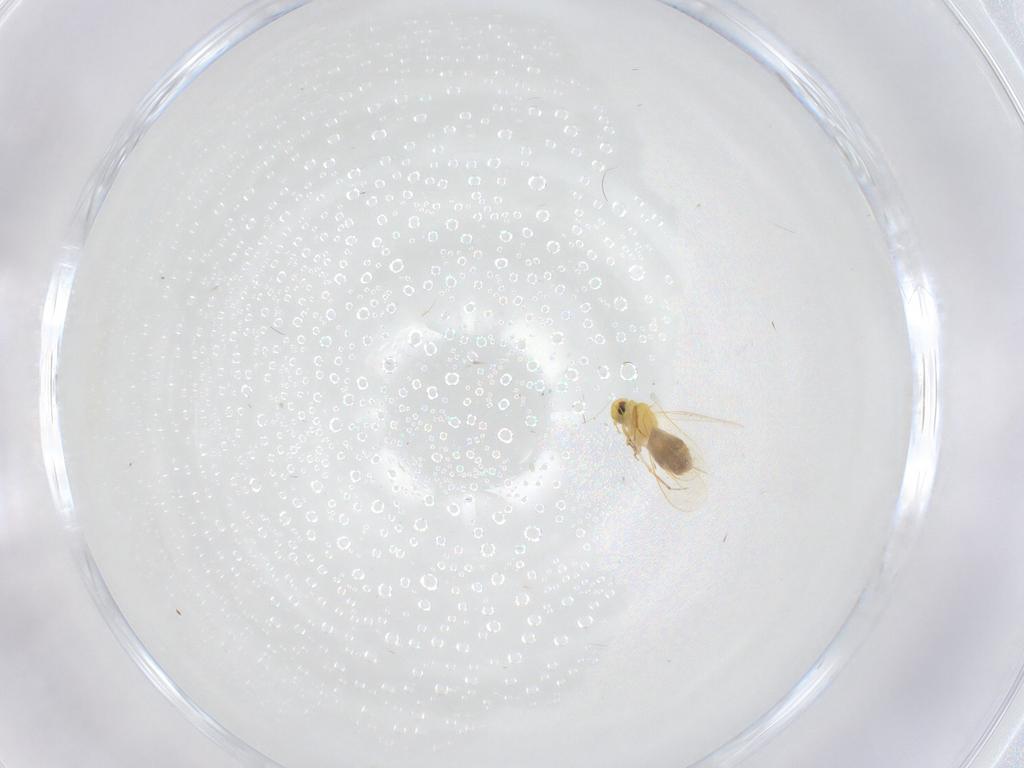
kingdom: Animalia
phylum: Arthropoda
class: Insecta
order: Hemiptera
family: Aleyrodidae
